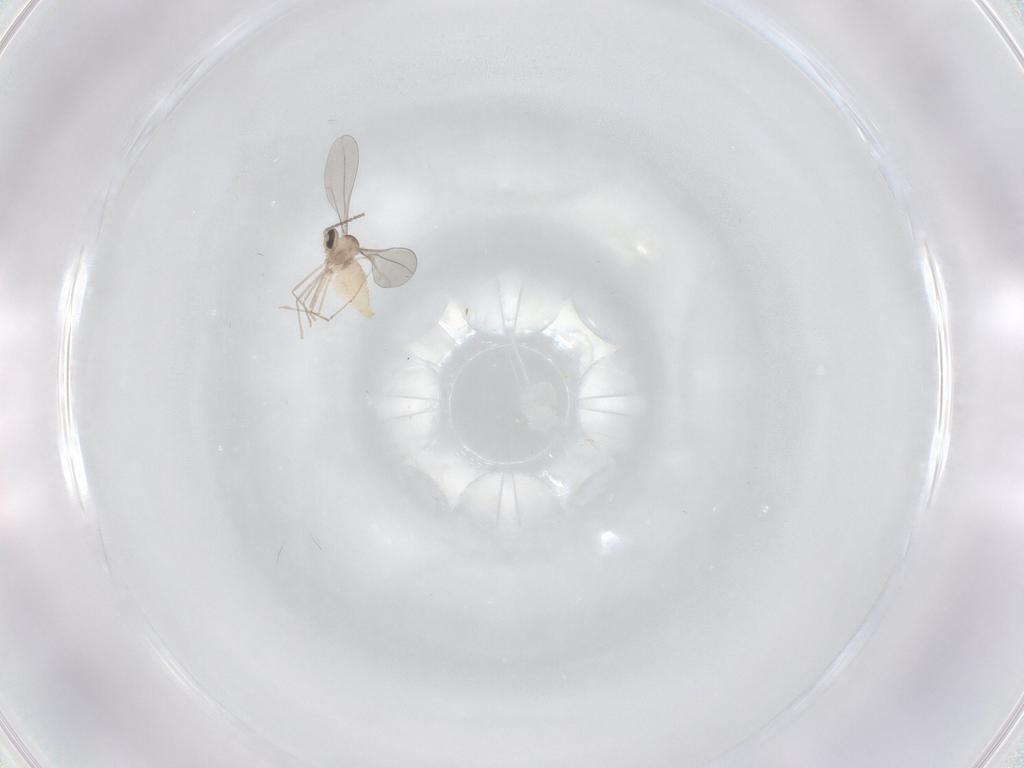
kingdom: Animalia
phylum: Arthropoda
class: Insecta
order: Diptera
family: Cecidomyiidae
